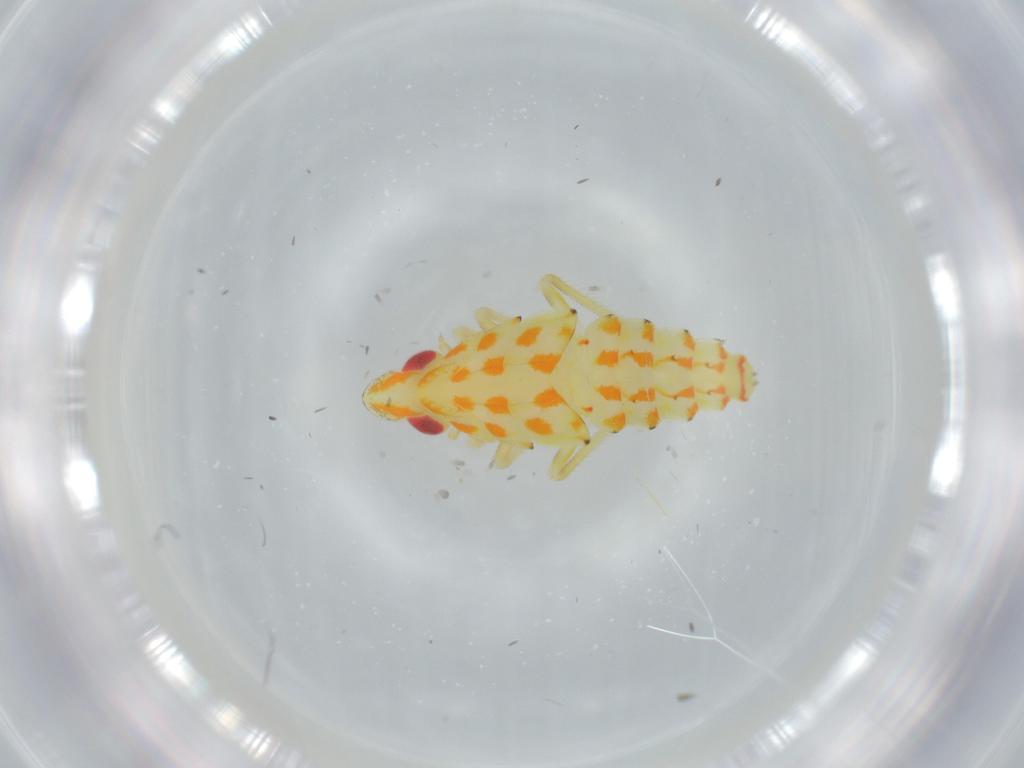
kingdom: Animalia
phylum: Arthropoda
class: Insecta
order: Hemiptera
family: Tropiduchidae
